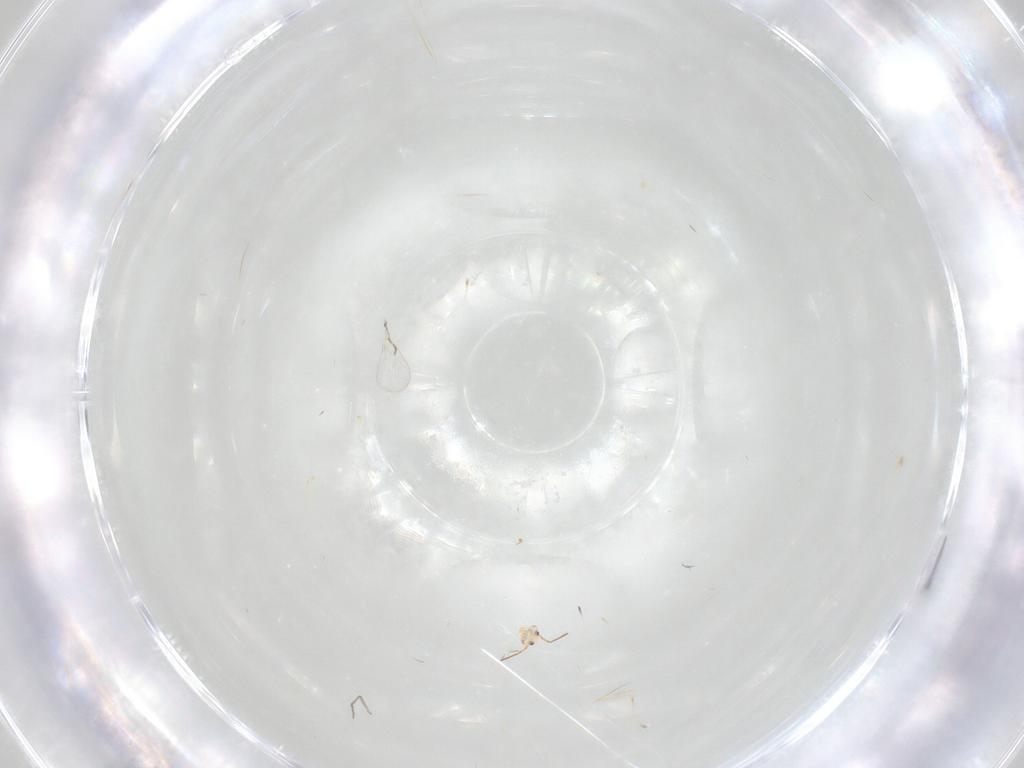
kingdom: Animalia
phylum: Arthropoda
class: Collembola
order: Symphypleona
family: Bourletiellidae
